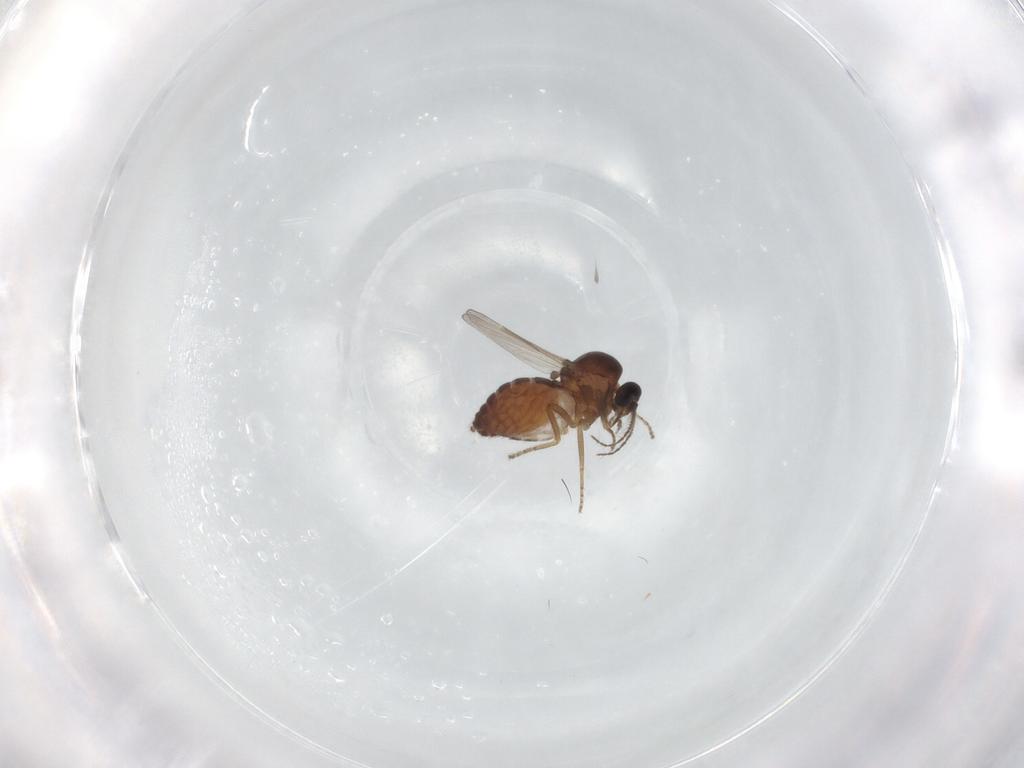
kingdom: Animalia
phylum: Arthropoda
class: Insecta
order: Diptera
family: Ceratopogonidae
